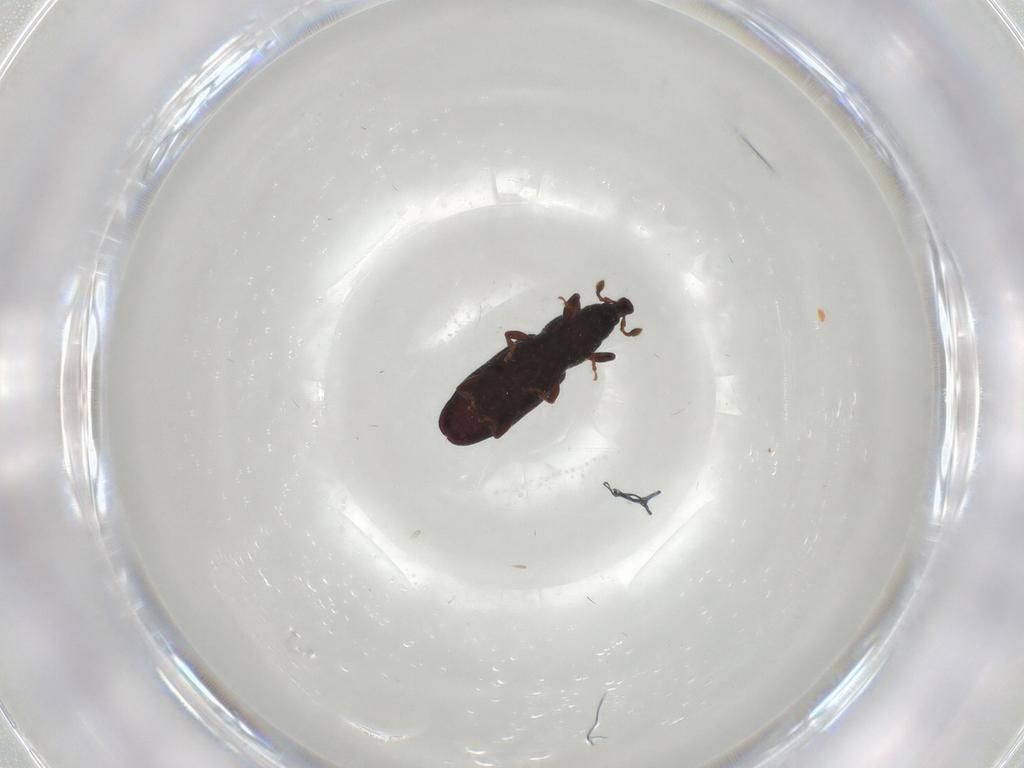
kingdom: Animalia
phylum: Arthropoda
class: Insecta
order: Coleoptera
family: Curculionidae
